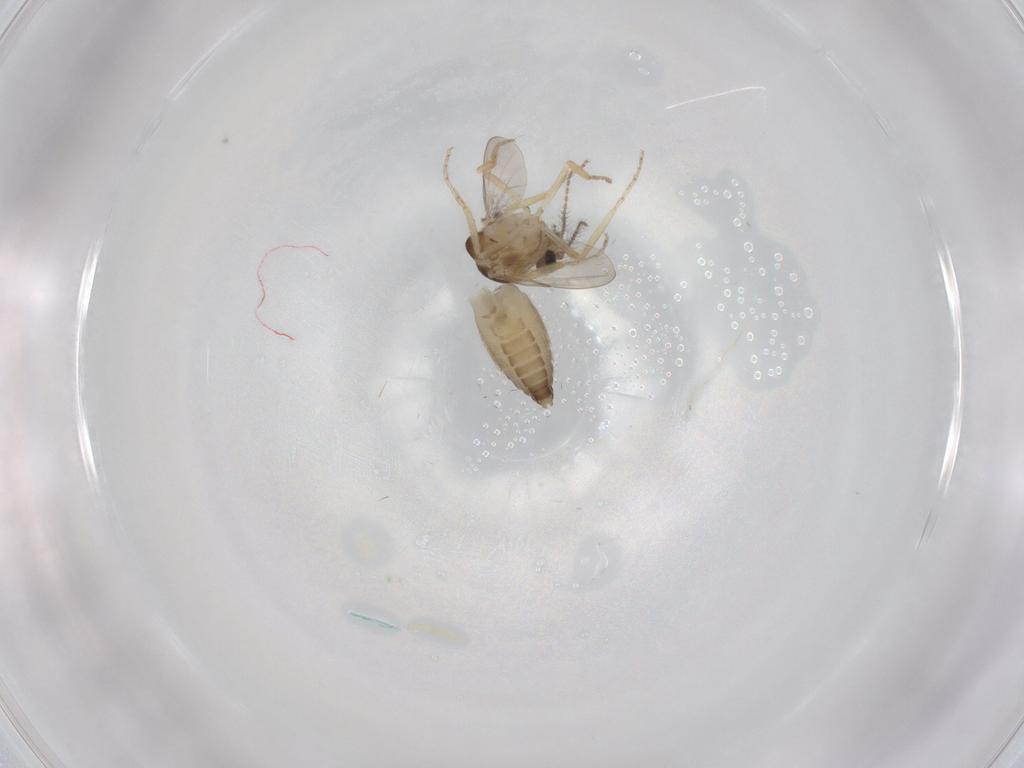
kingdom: Animalia
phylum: Arthropoda
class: Insecta
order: Diptera
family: Ceratopogonidae
